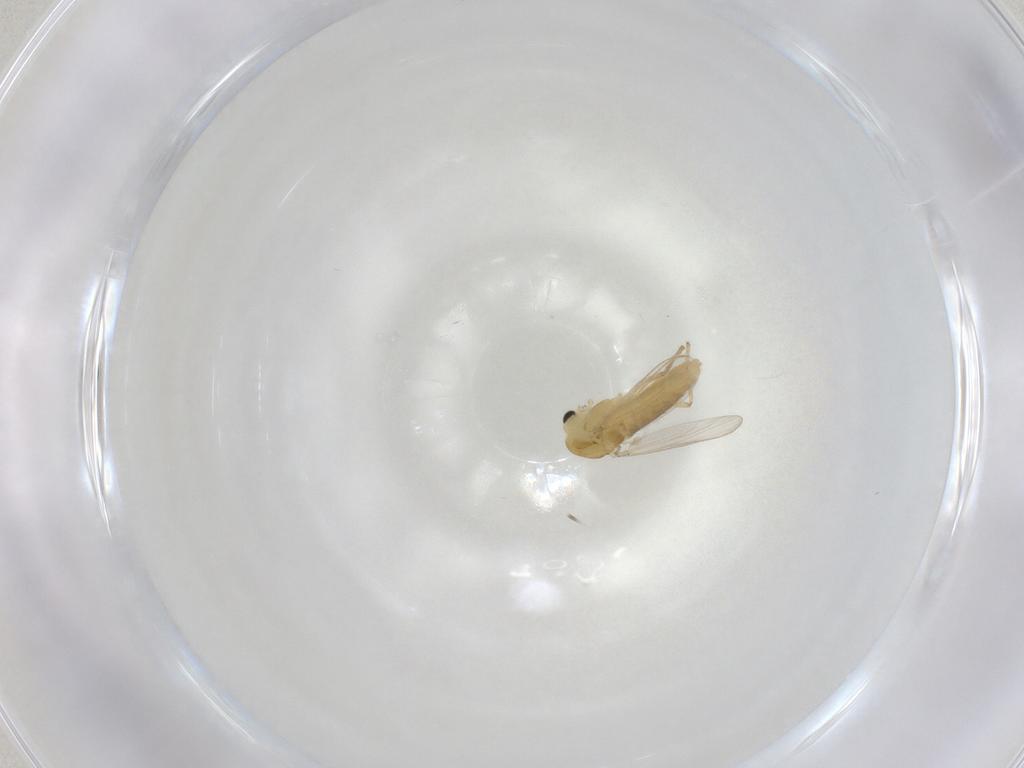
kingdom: Animalia
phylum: Arthropoda
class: Insecta
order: Diptera
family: Chironomidae
